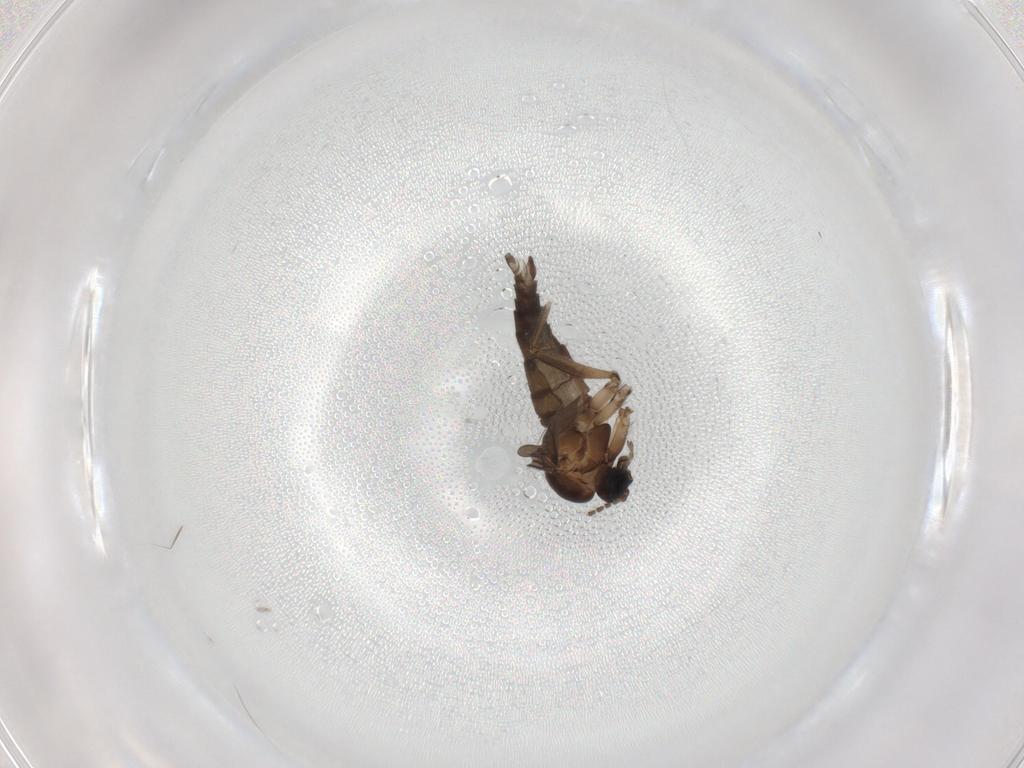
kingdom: Animalia
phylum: Arthropoda
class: Insecta
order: Diptera
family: Sciaridae
